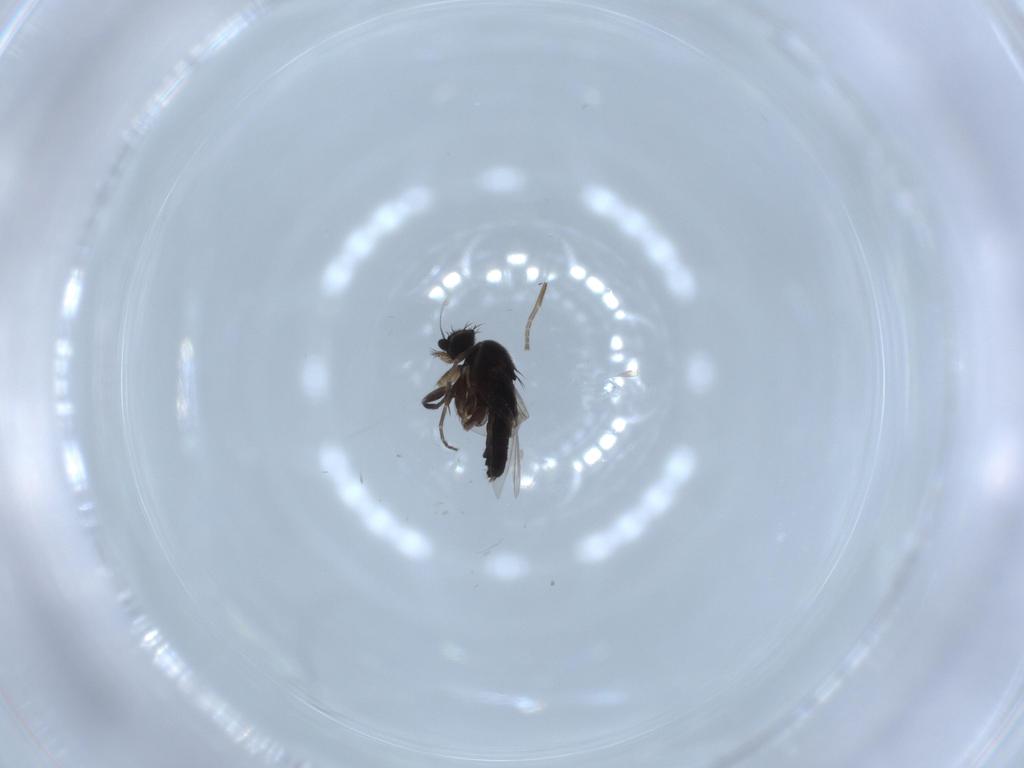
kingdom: Animalia
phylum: Arthropoda
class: Insecta
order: Diptera
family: Phoridae
